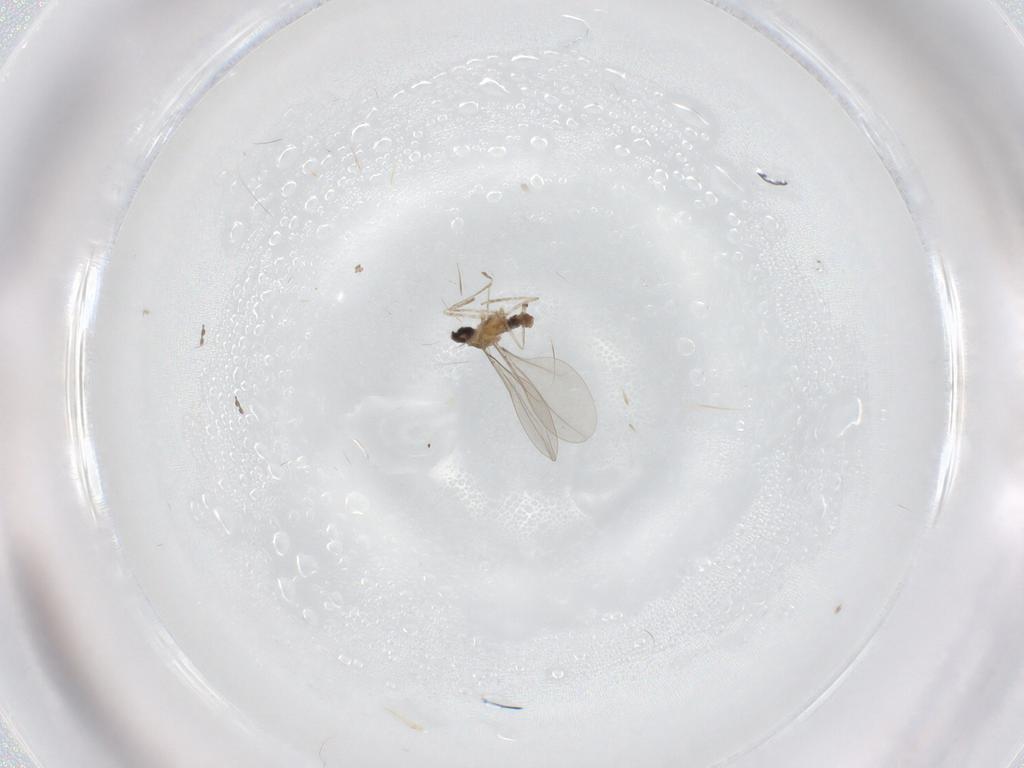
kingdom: Animalia
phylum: Arthropoda
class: Insecta
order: Diptera
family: Cecidomyiidae
